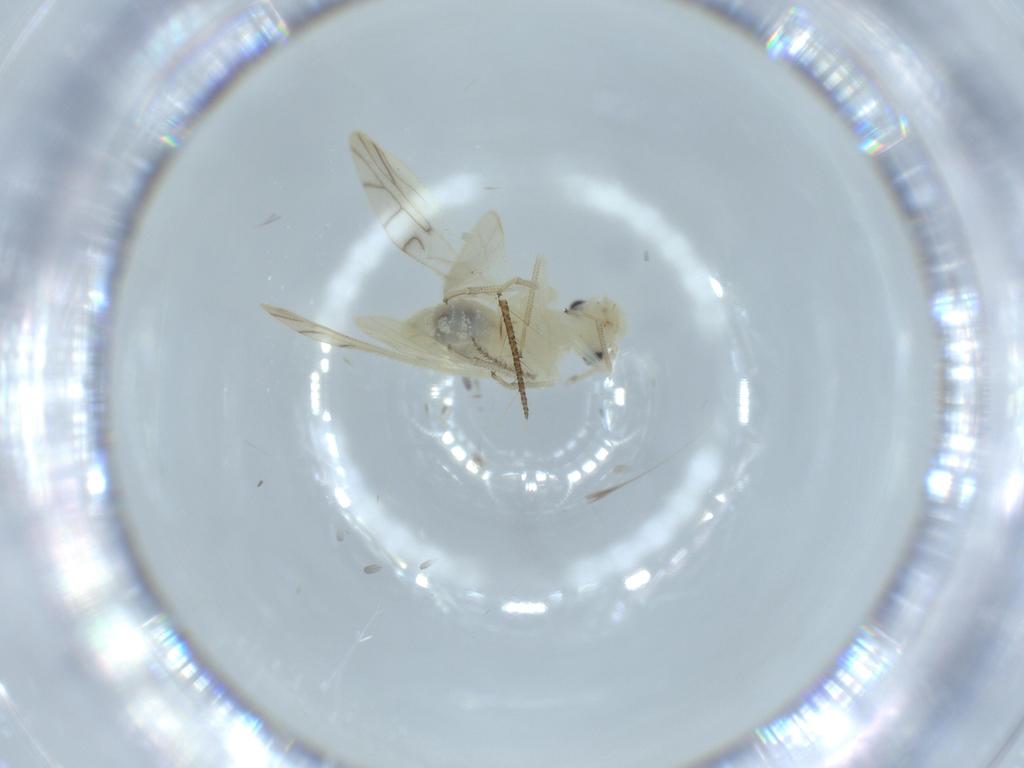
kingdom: Animalia
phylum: Arthropoda
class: Insecta
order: Psocodea
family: Caeciliusidae
